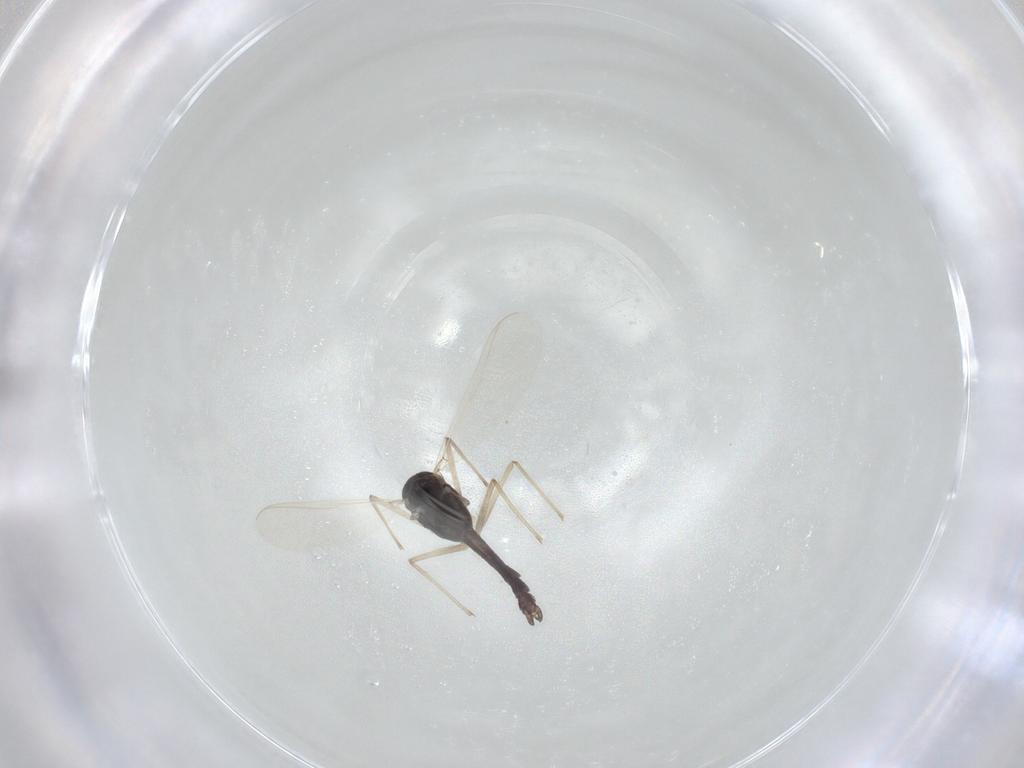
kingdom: Animalia
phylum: Arthropoda
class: Insecta
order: Diptera
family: Chironomidae
